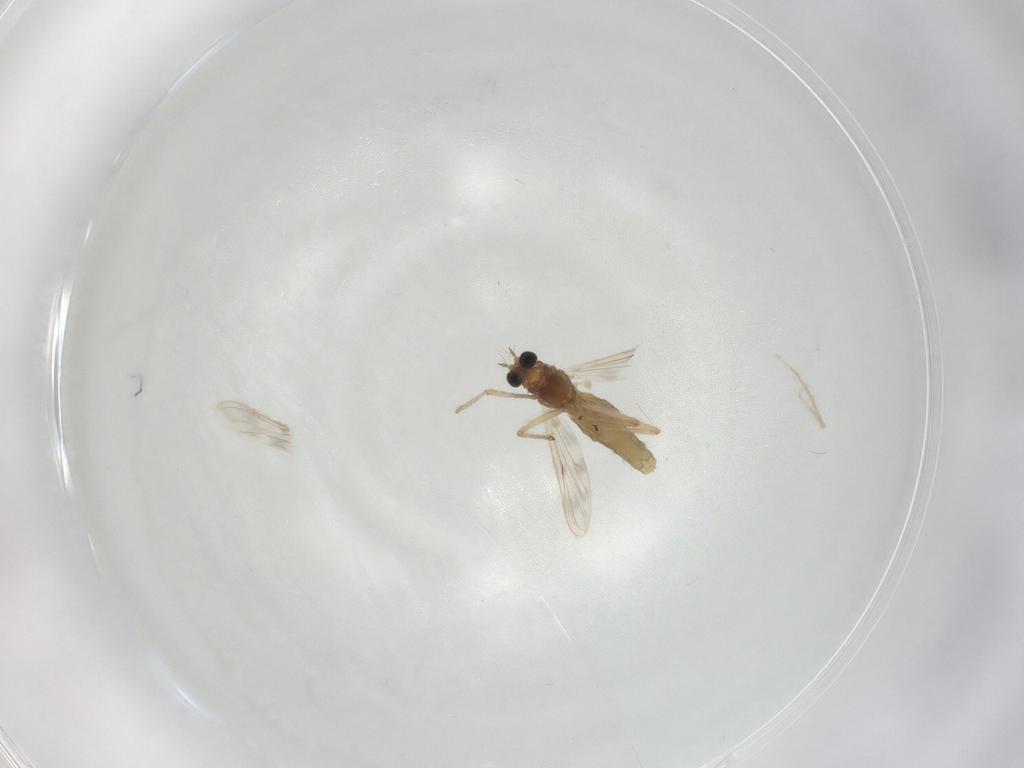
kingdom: Animalia
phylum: Arthropoda
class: Insecta
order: Diptera
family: Chironomidae
